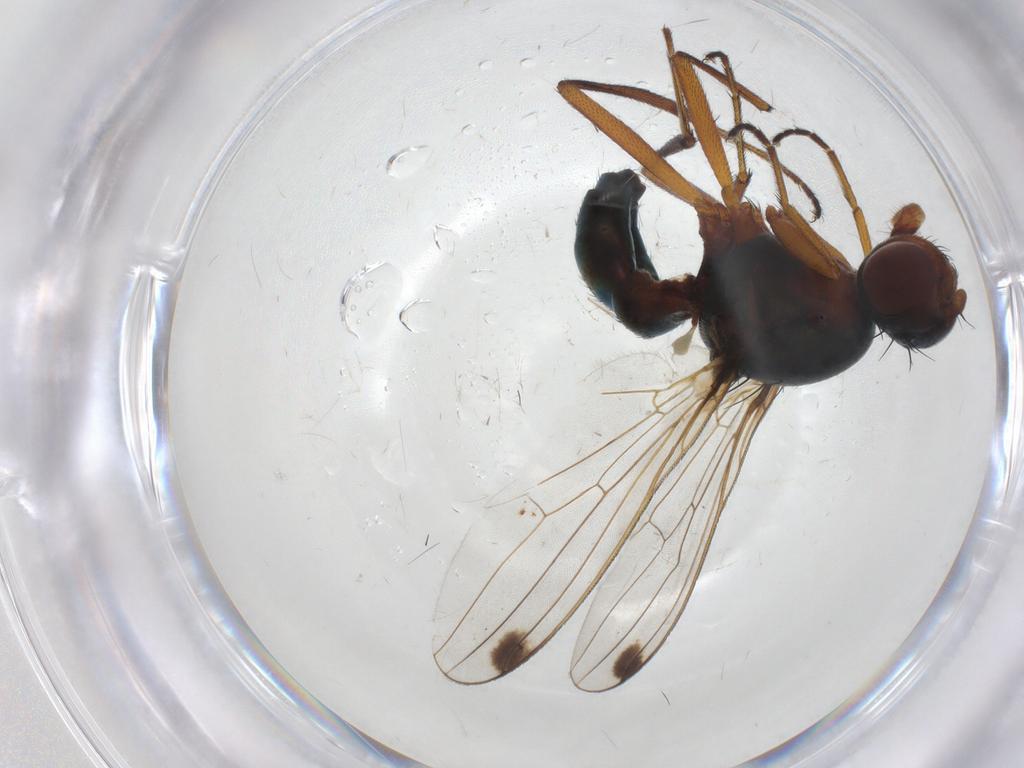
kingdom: Animalia
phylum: Arthropoda
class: Insecta
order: Diptera
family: Sepsidae
